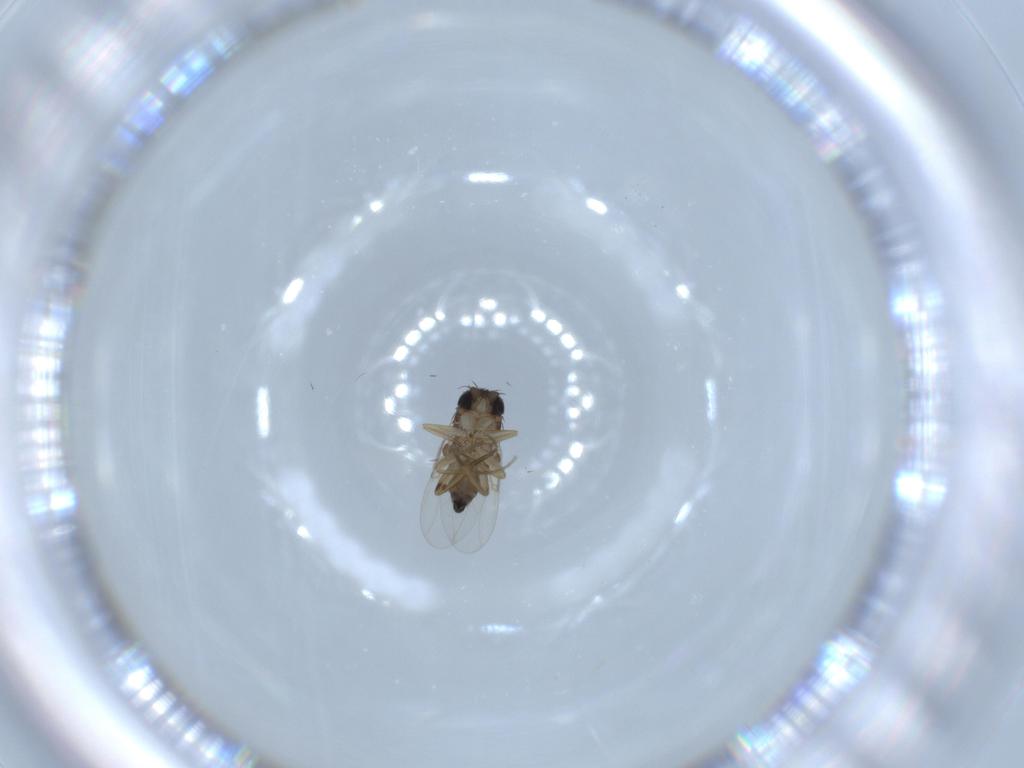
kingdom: Animalia
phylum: Arthropoda
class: Insecta
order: Diptera
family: Phoridae
